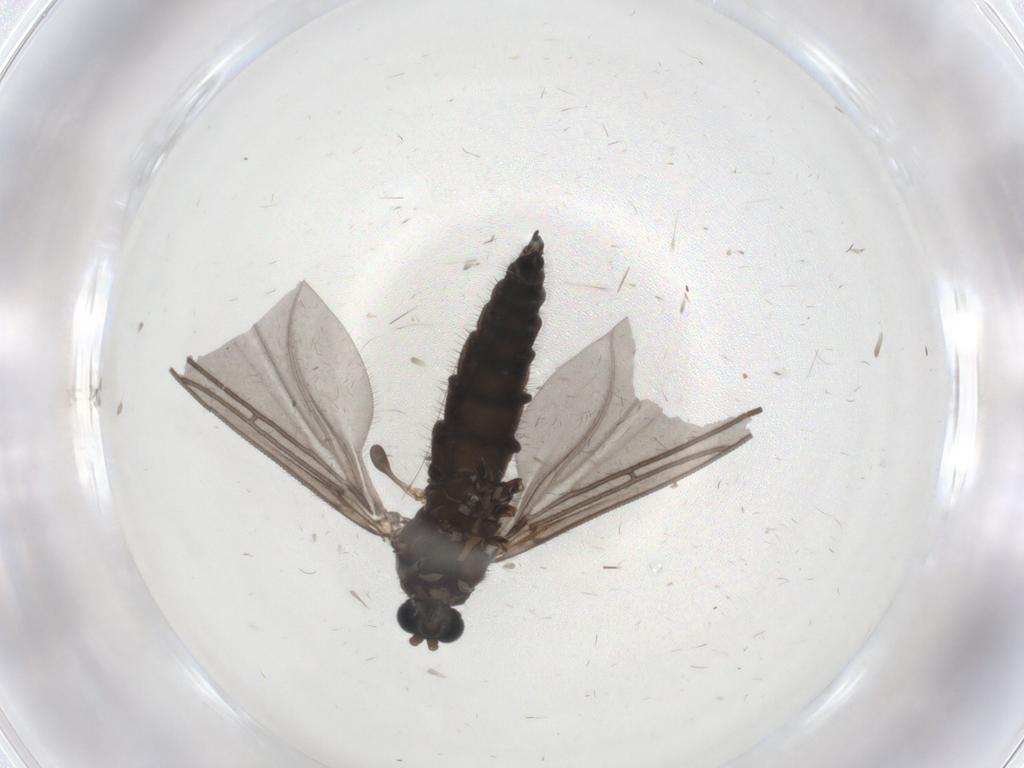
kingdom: Animalia
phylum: Arthropoda
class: Insecta
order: Diptera
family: Sciaridae
